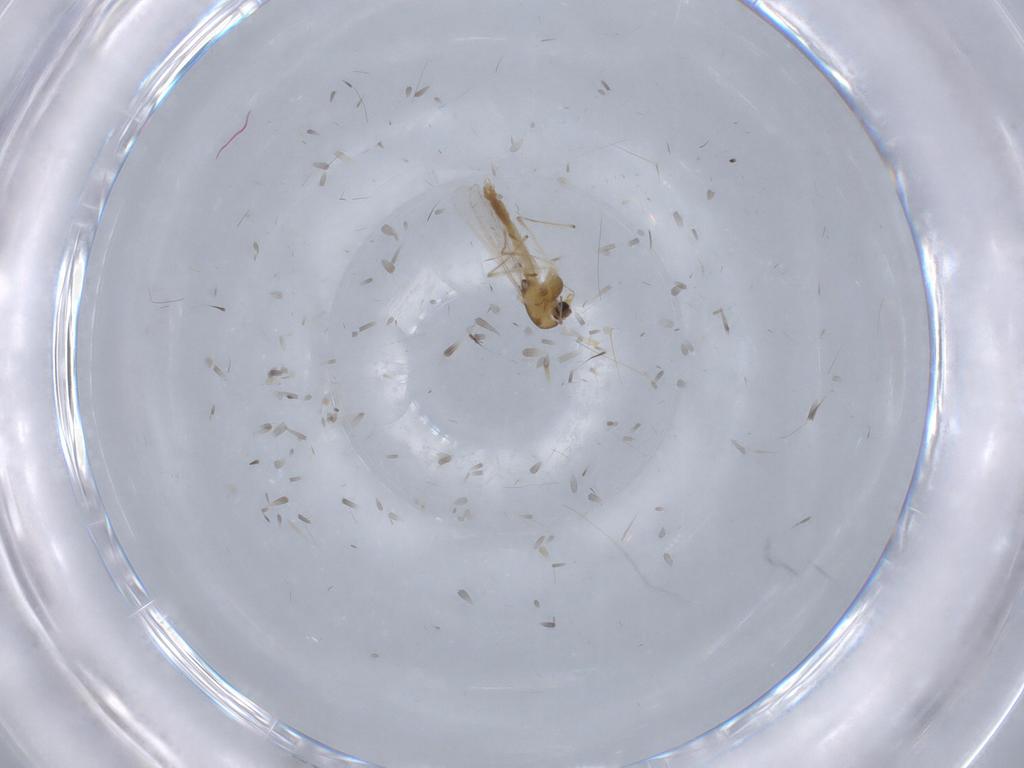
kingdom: Animalia
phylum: Arthropoda
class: Insecta
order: Diptera
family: Chironomidae
